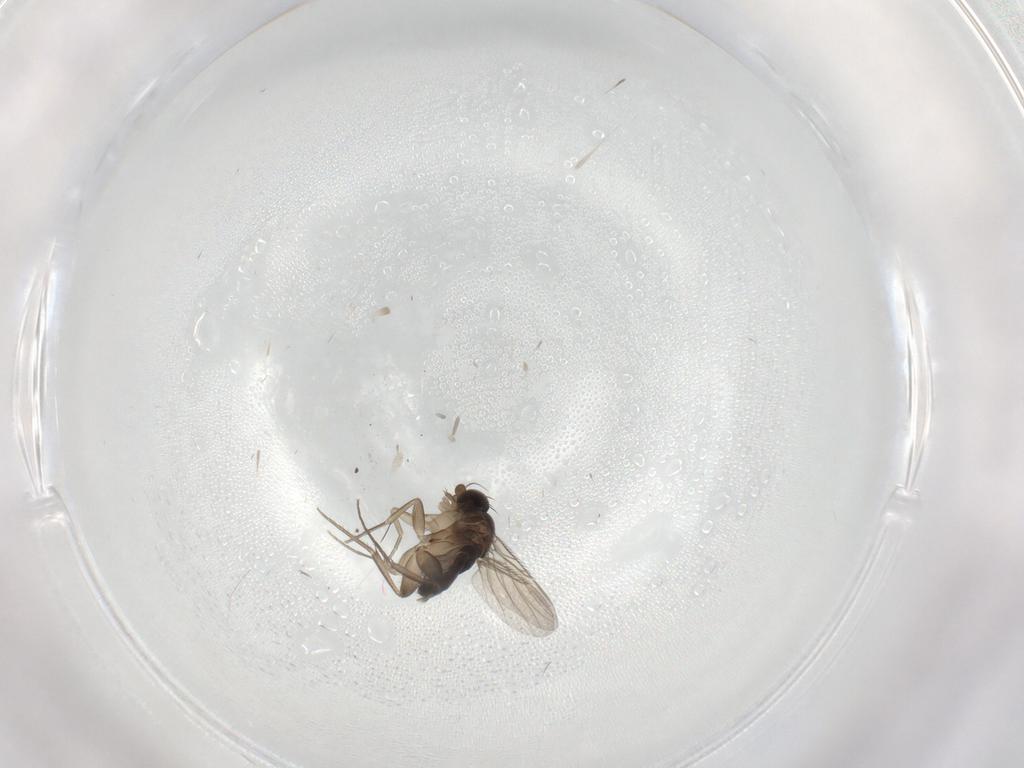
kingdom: Animalia
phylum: Arthropoda
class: Insecta
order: Diptera
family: Phoridae
